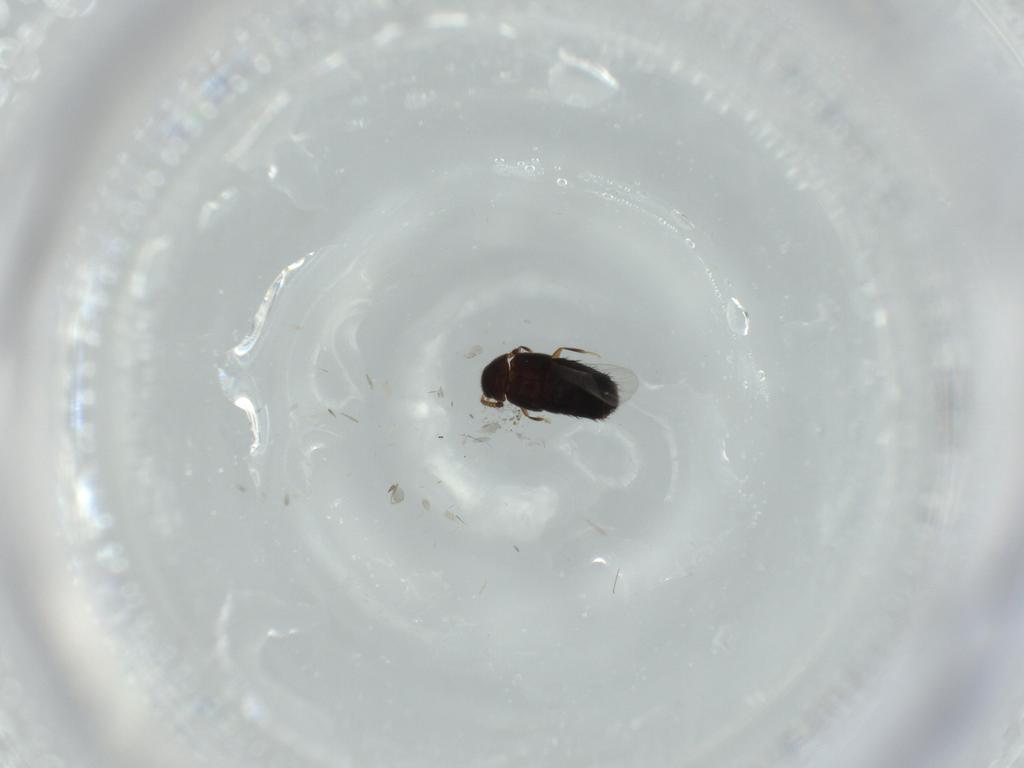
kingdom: Animalia
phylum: Arthropoda
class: Insecta
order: Coleoptera
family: Staphylinidae
